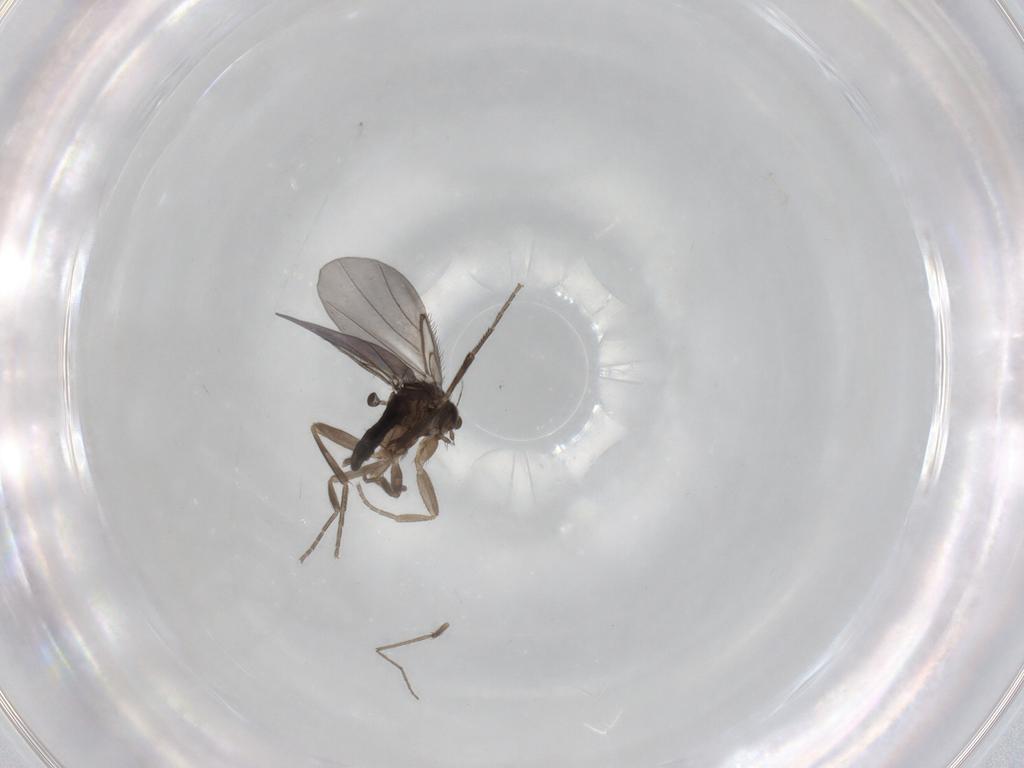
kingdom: Animalia
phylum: Arthropoda
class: Insecta
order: Diptera
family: Phoridae
